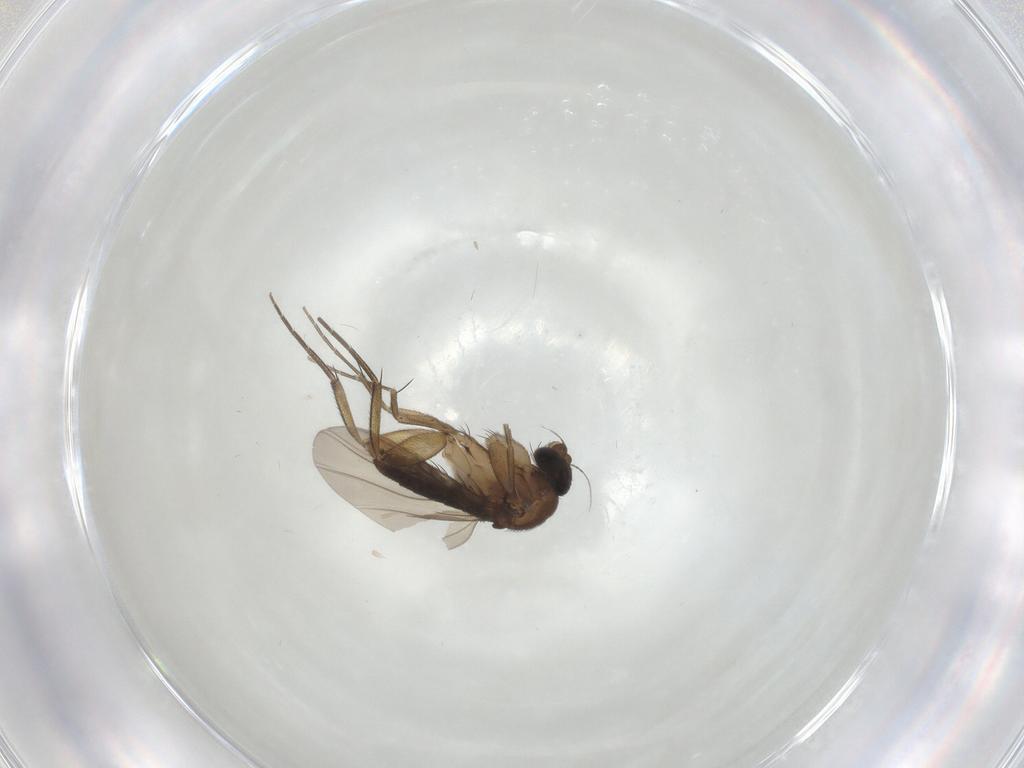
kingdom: Animalia
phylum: Arthropoda
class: Insecta
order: Diptera
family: Phoridae
